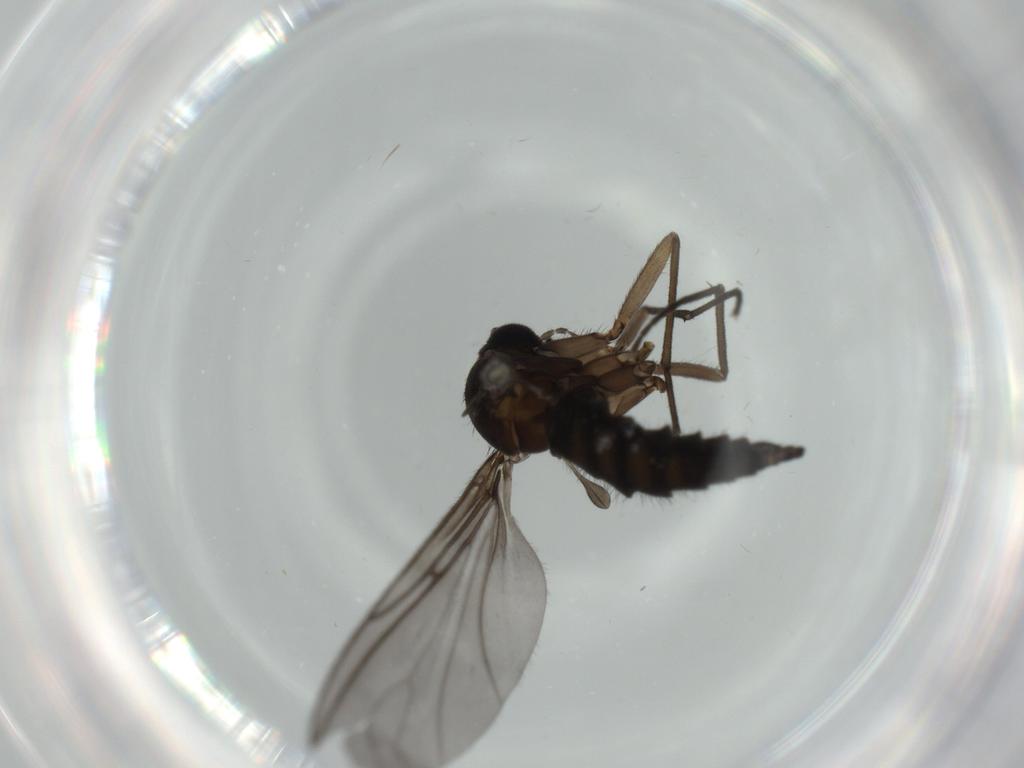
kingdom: Animalia
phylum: Arthropoda
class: Insecta
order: Diptera
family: Sciaridae
